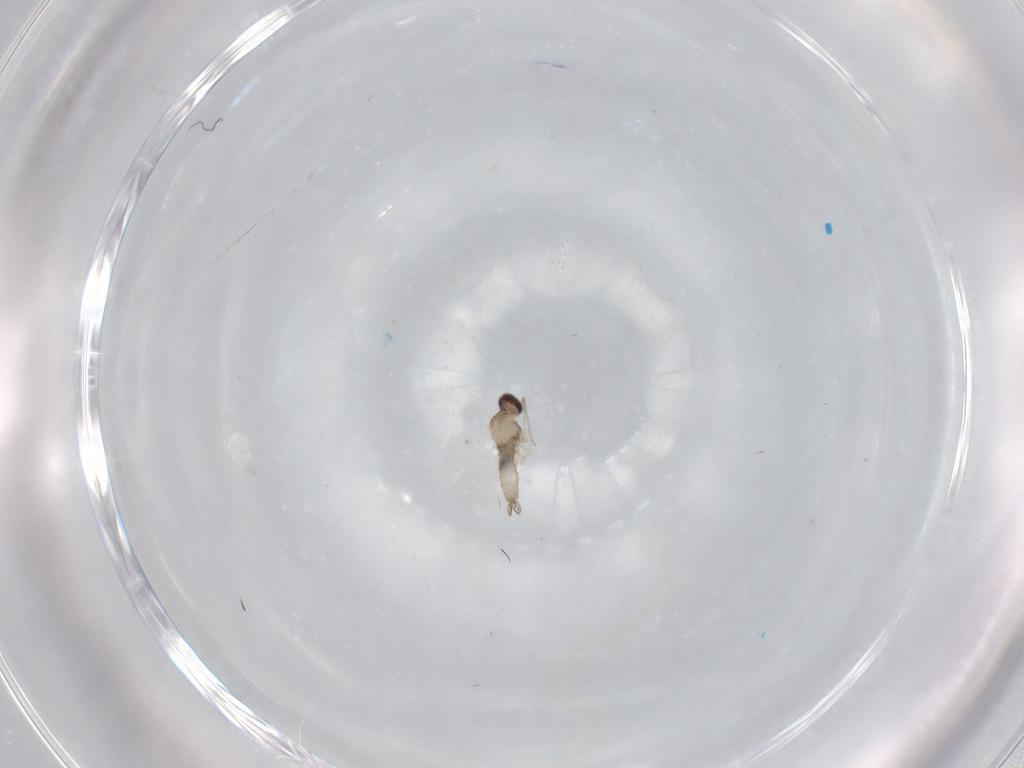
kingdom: Animalia
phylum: Arthropoda
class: Insecta
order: Diptera
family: Cecidomyiidae
